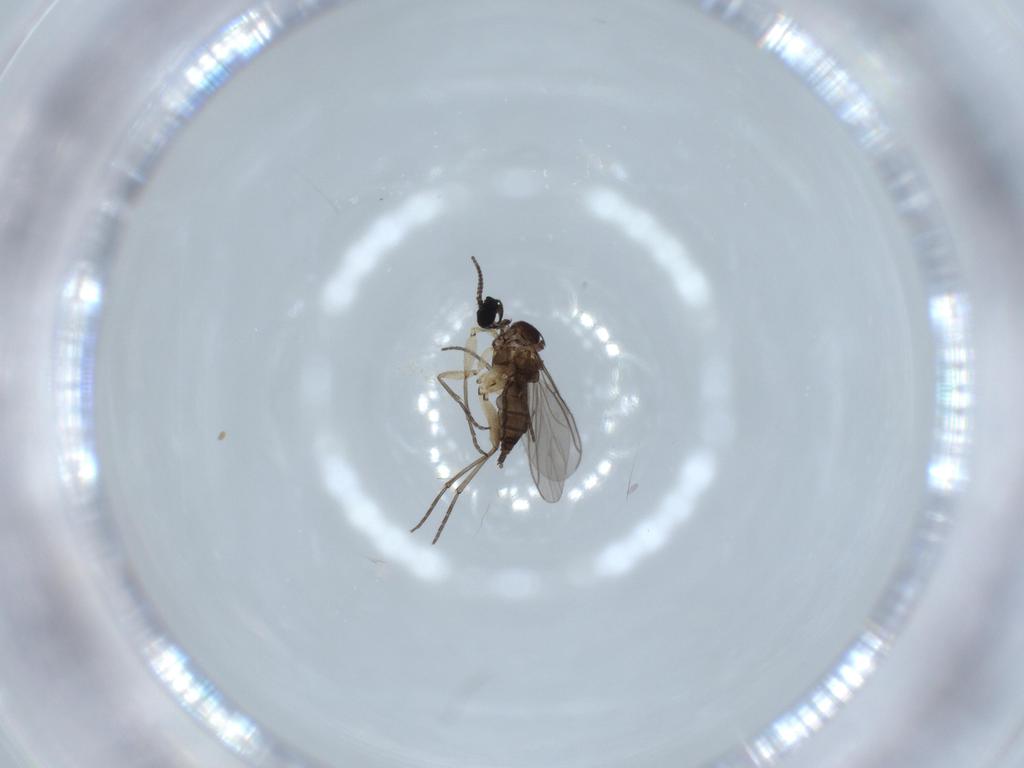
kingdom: Animalia
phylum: Arthropoda
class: Insecta
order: Diptera
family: Sciaridae
